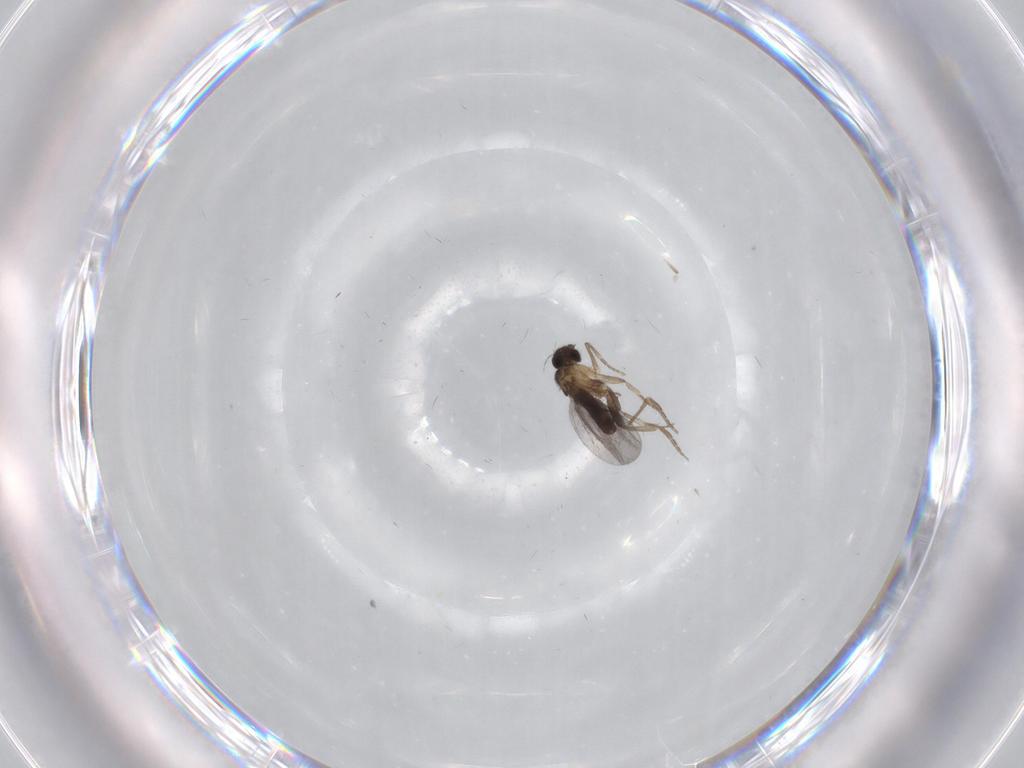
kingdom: Animalia
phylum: Arthropoda
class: Insecta
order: Diptera
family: Ceratopogonidae
